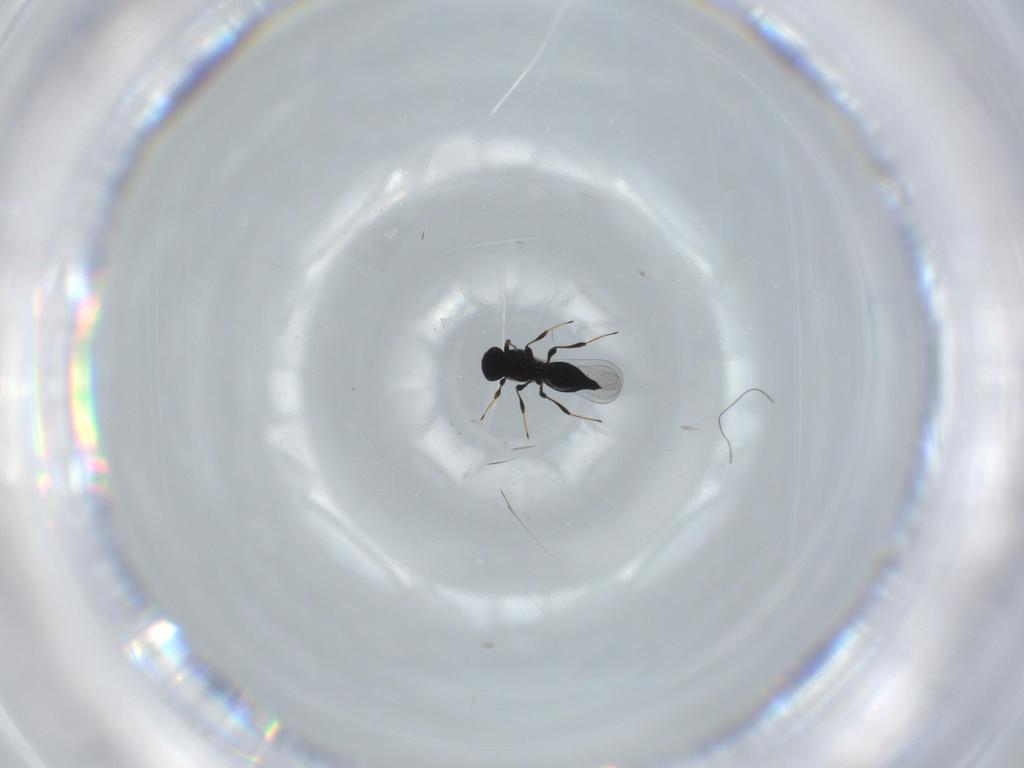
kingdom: Animalia
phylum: Arthropoda
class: Insecta
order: Hymenoptera
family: Platygastridae
